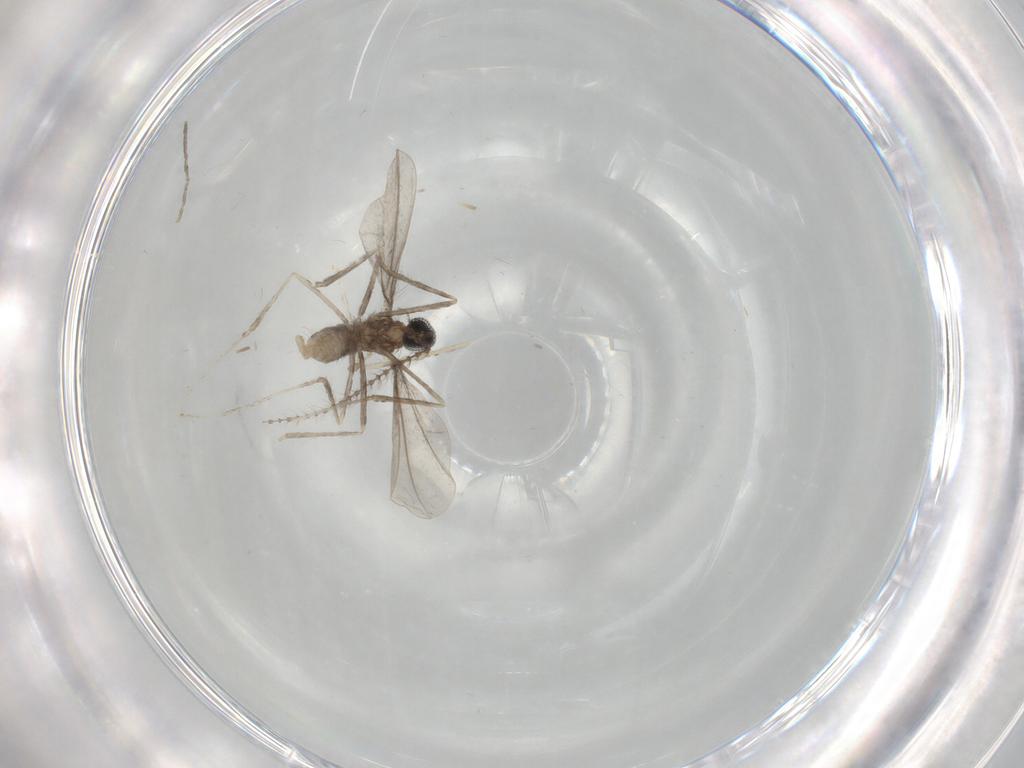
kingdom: Animalia
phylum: Arthropoda
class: Insecta
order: Diptera
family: Cecidomyiidae
